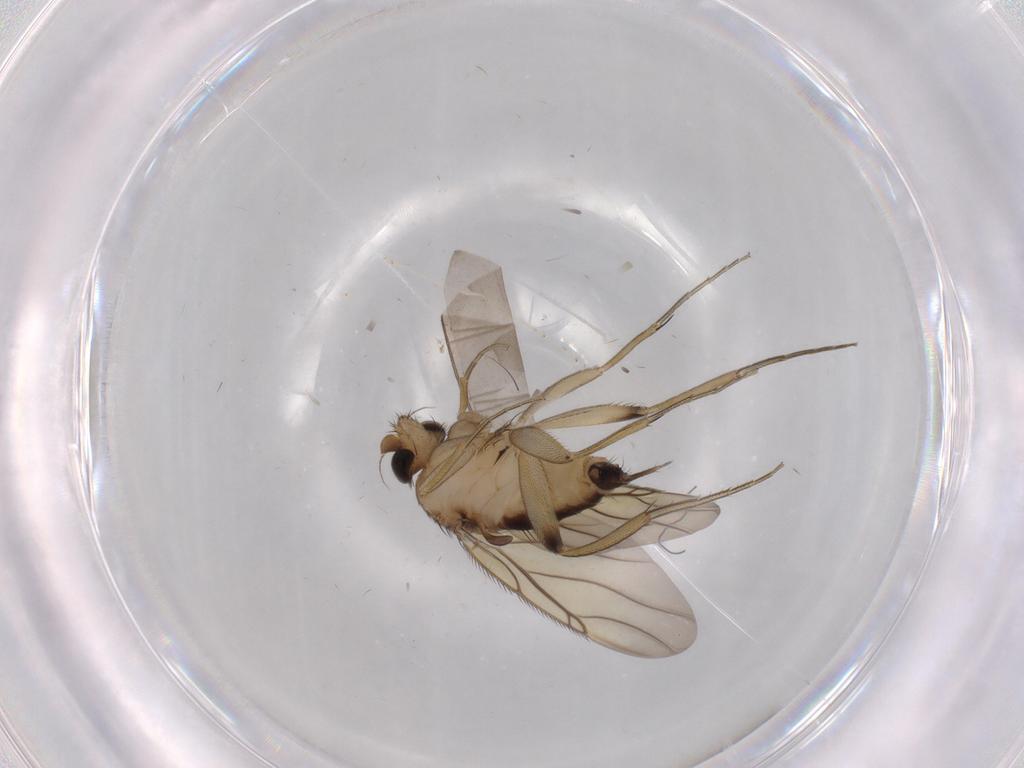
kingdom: Animalia
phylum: Arthropoda
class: Insecta
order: Diptera
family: Phoridae
